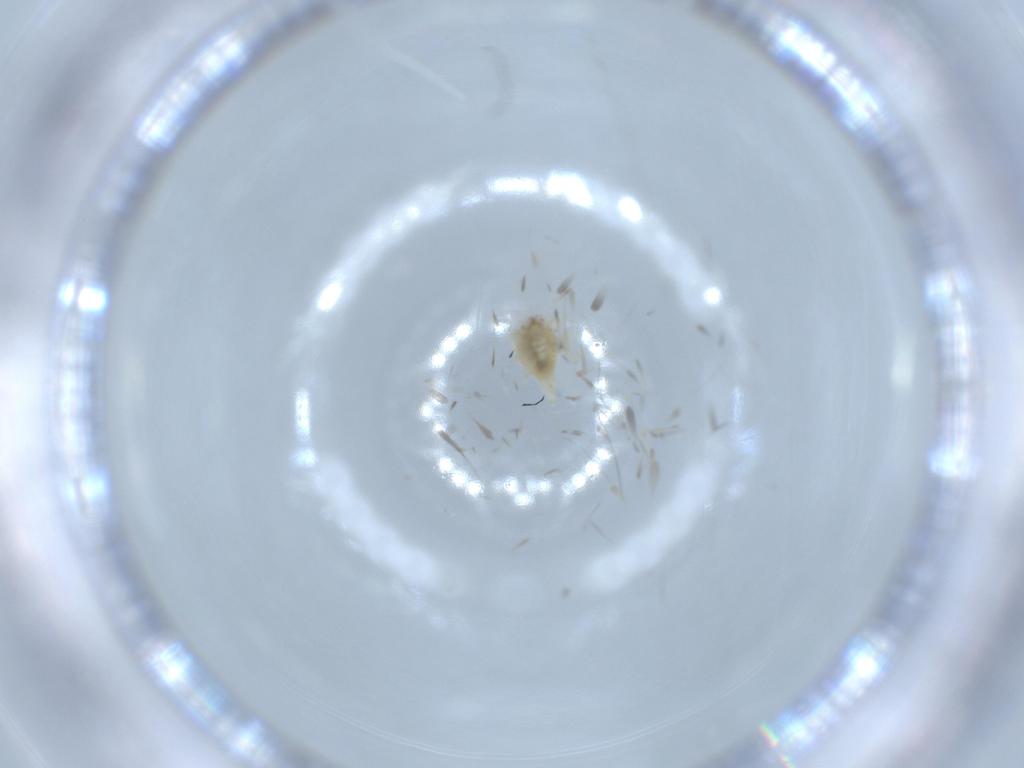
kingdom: Animalia
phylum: Arthropoda
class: Insecta
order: Neuroptera
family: Coniopterygidae
